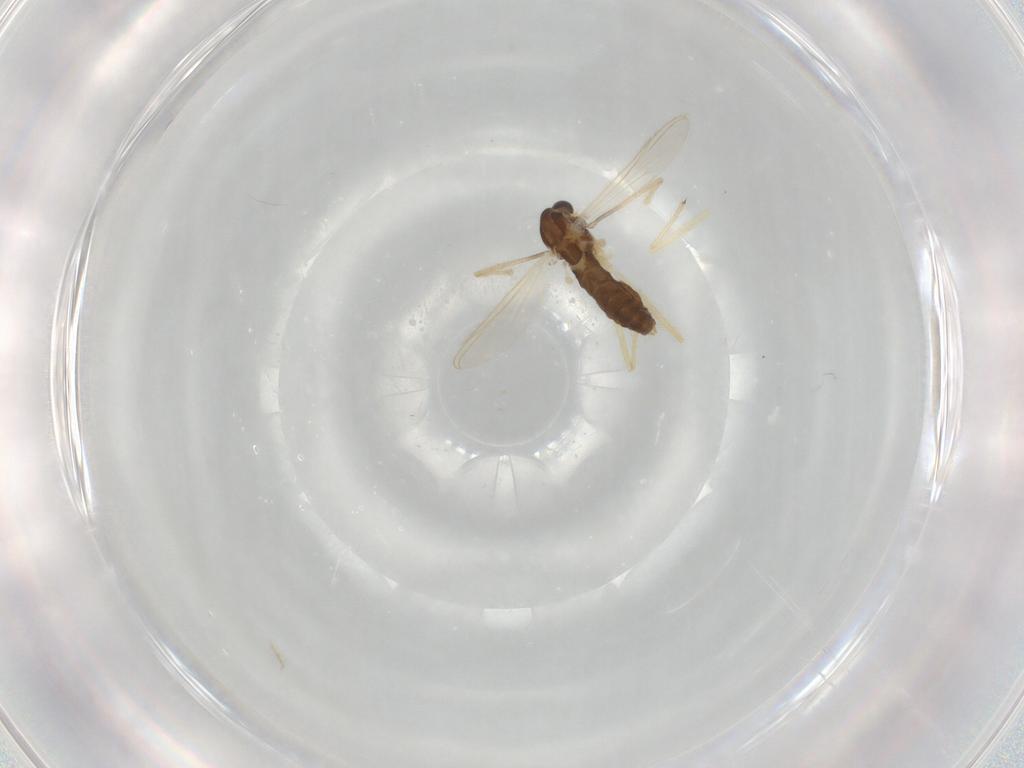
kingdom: Animalia
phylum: Arthropoda
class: Insecta
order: Diptera
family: Chironomidae
